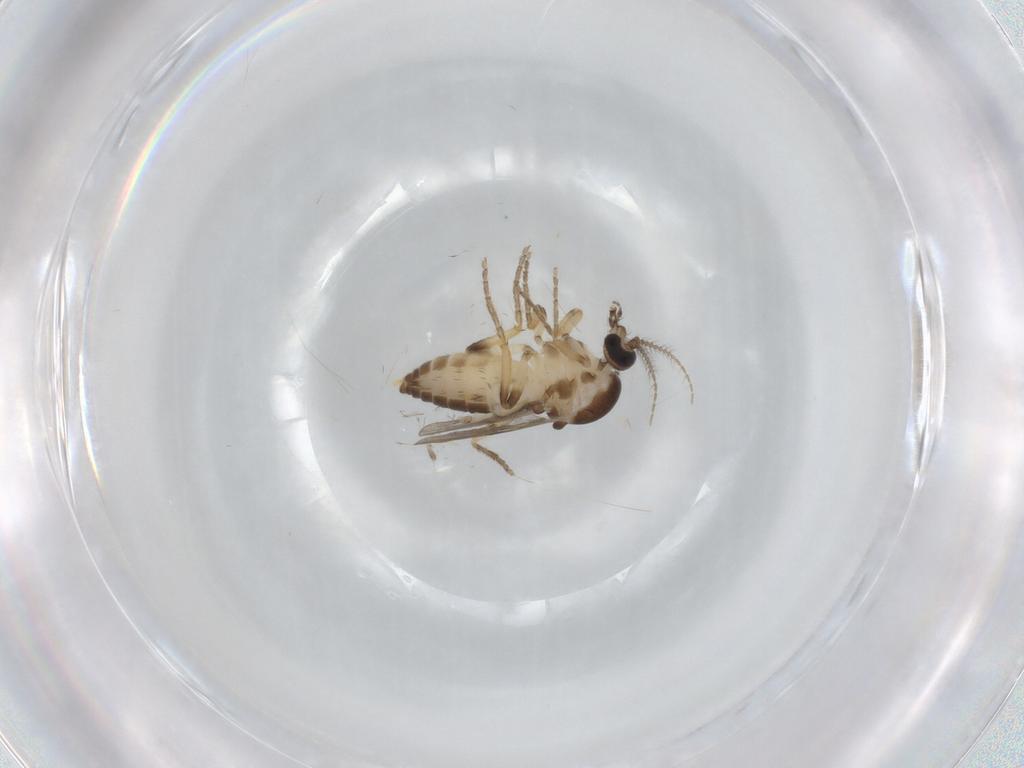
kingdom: Animalia
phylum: Arthropoda
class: Insecta
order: Diptera
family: Ceratopogonidae
